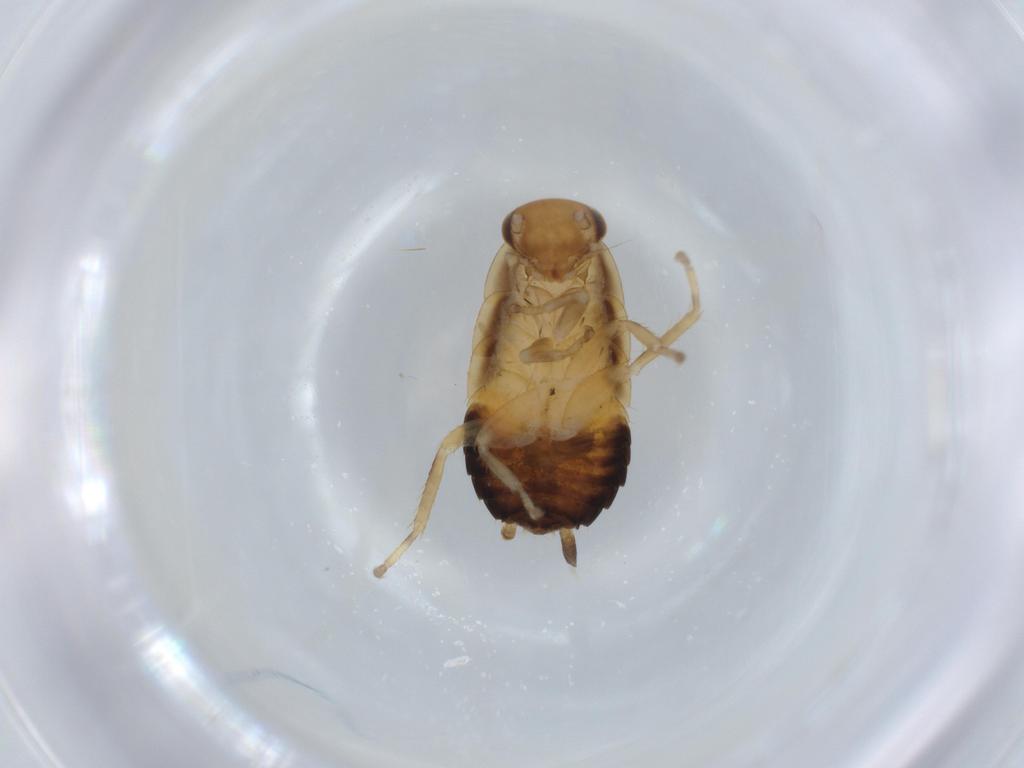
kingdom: Animalia
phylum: Arthropoda
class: Insecta
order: Blattodea
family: Ectobiidae
